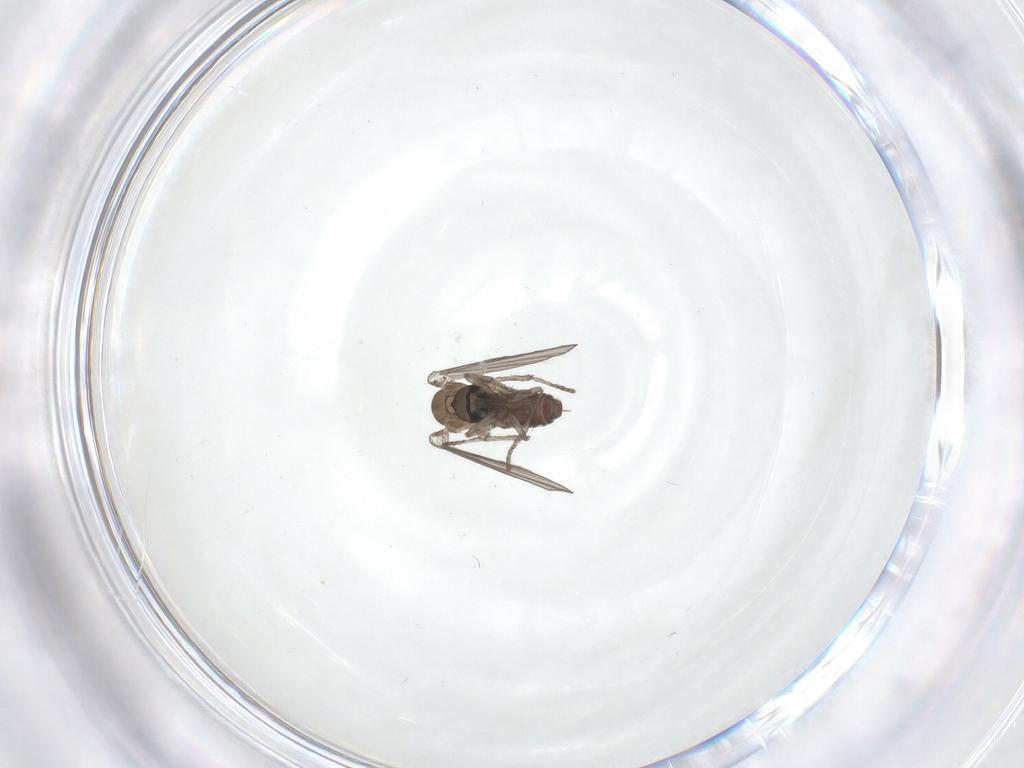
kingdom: Animalia
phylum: Arthropoda
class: Insecta
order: Diptera
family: Psychodidae
